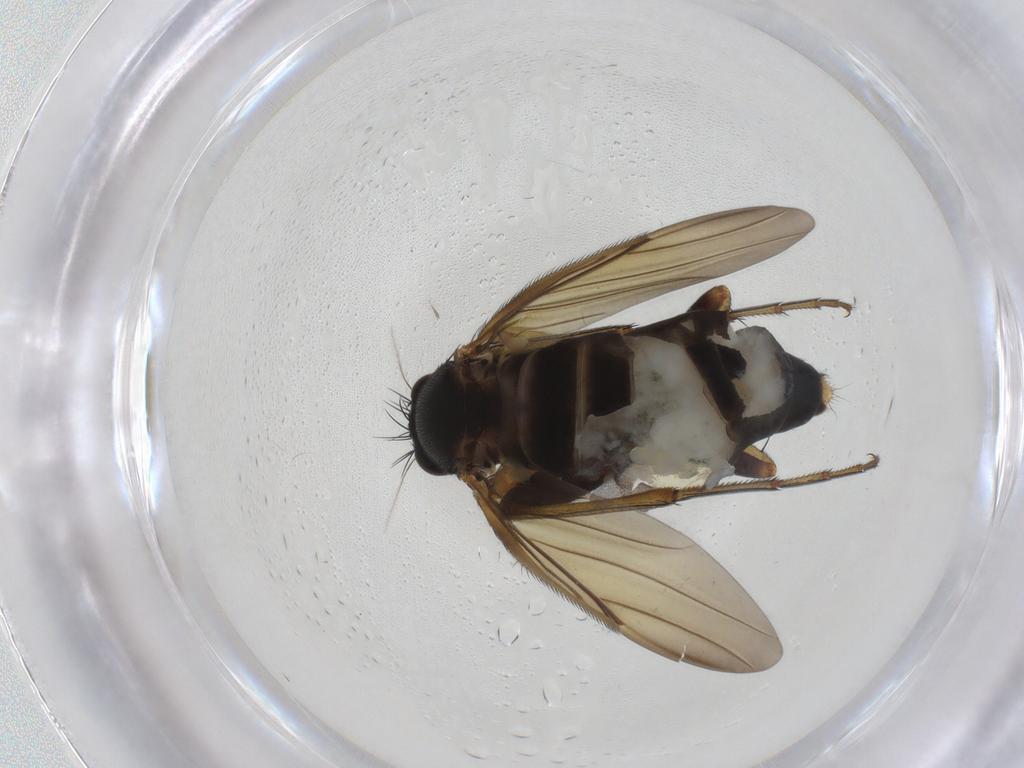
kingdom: Animalia
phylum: Arthropoda
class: Insecta
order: Diptera
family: Phoridae
